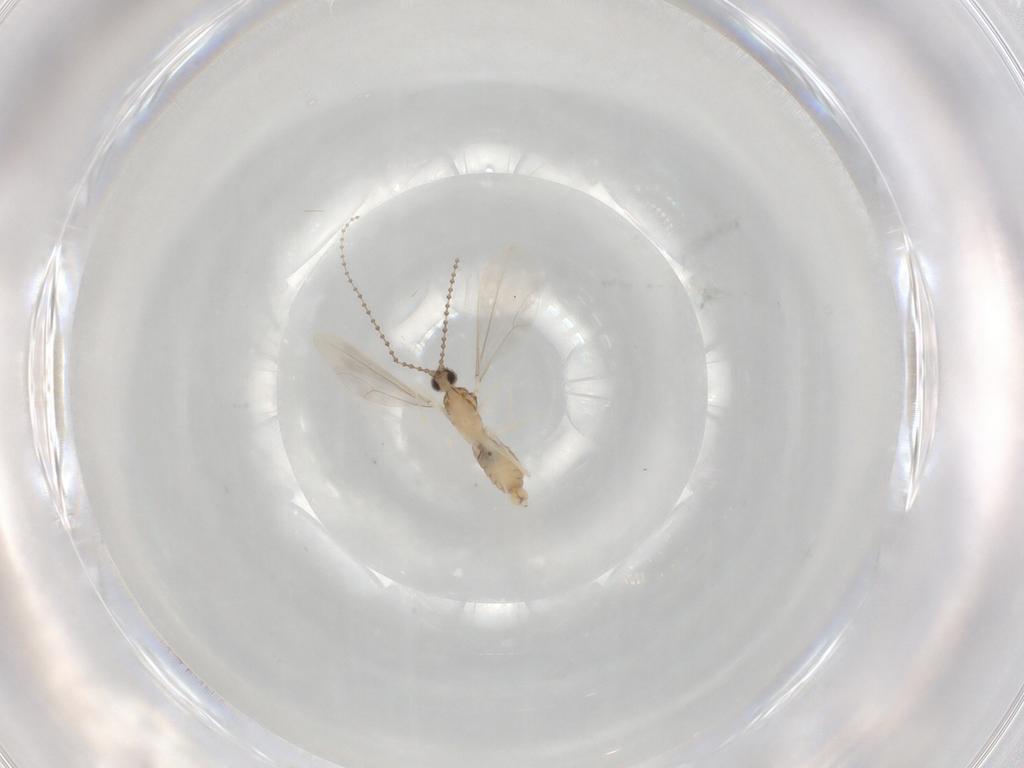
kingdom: Animalia
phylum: Arthropoda
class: Insecta
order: Diptera
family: Cecidomyiidae
